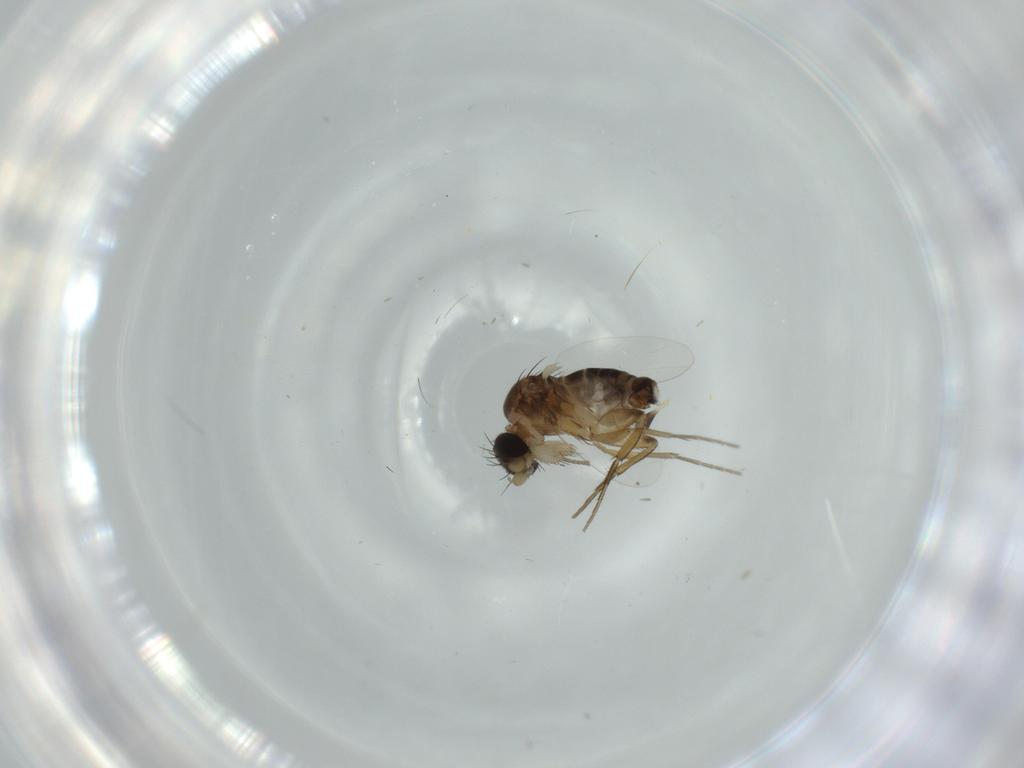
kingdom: Animalia
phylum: Arthropoda
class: Insecta
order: Diptera
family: Phoridae
